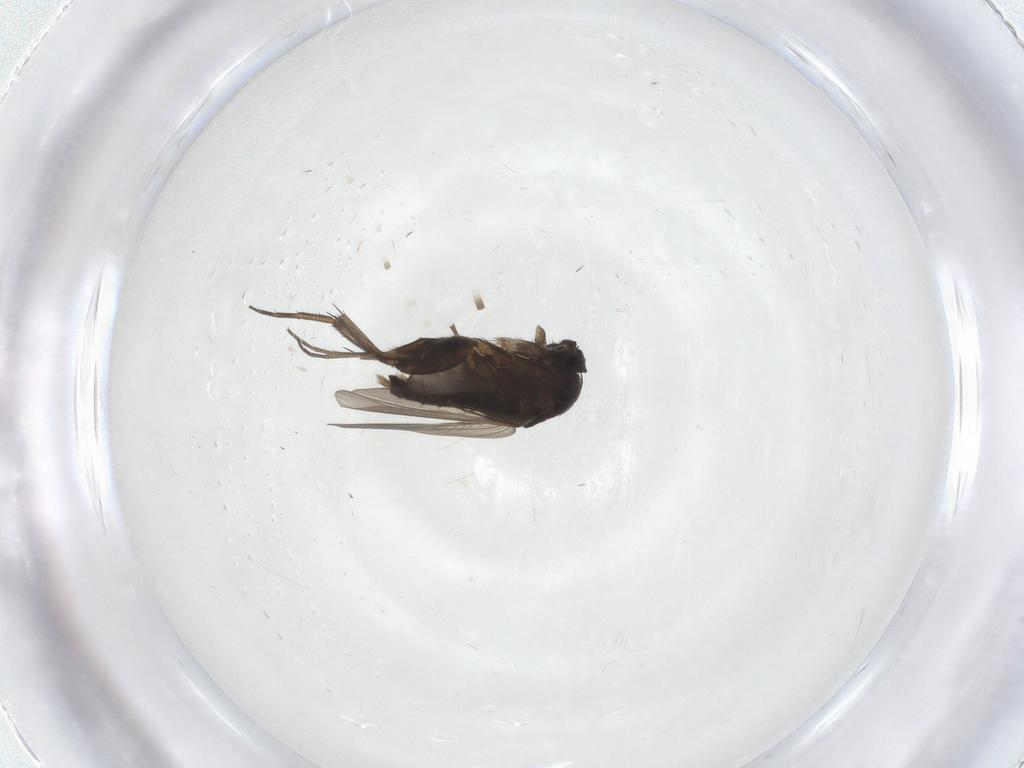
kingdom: Animalia
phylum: Arthropoda
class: Insecta
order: Diptera
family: Phoridae
